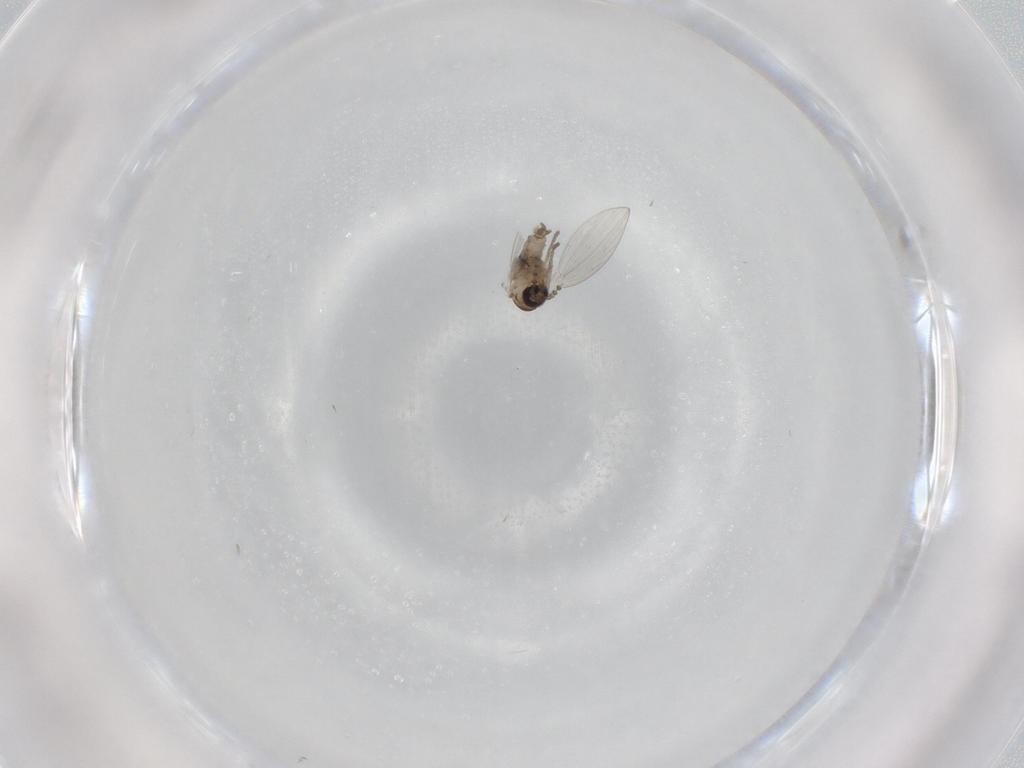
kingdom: Animalia
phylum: Arthropoda
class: Insecta
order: Diptera
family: Psychodidae
